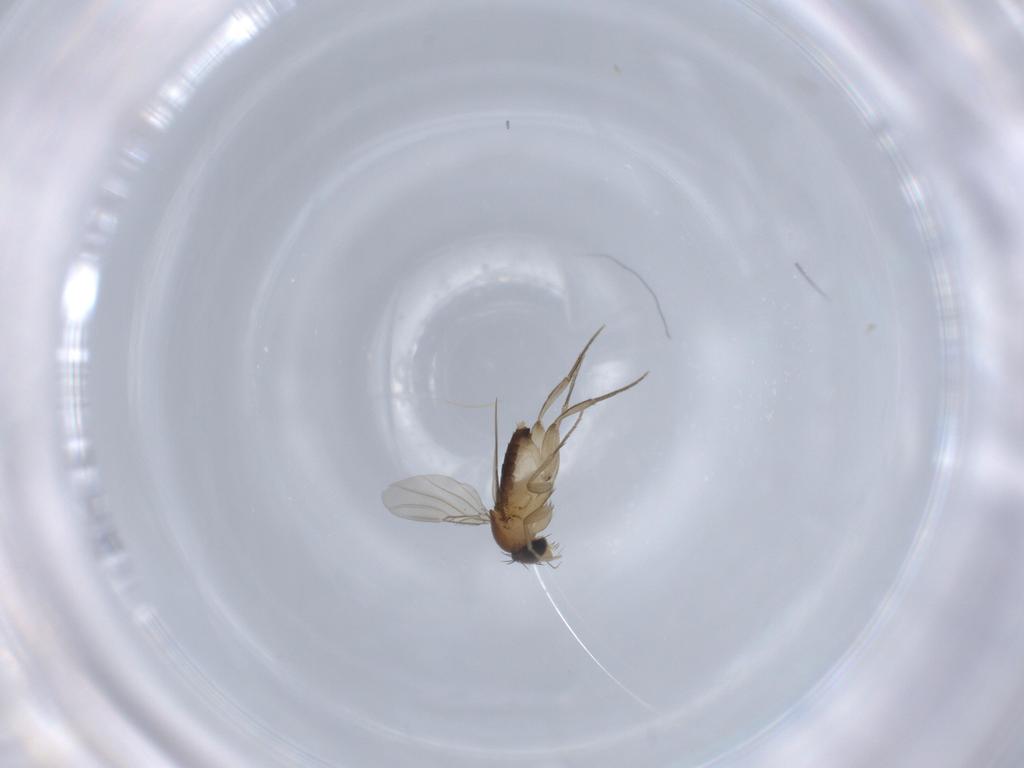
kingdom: Animalia
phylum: Arthropoda
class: Insecta
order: Diptera
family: Phoridae
